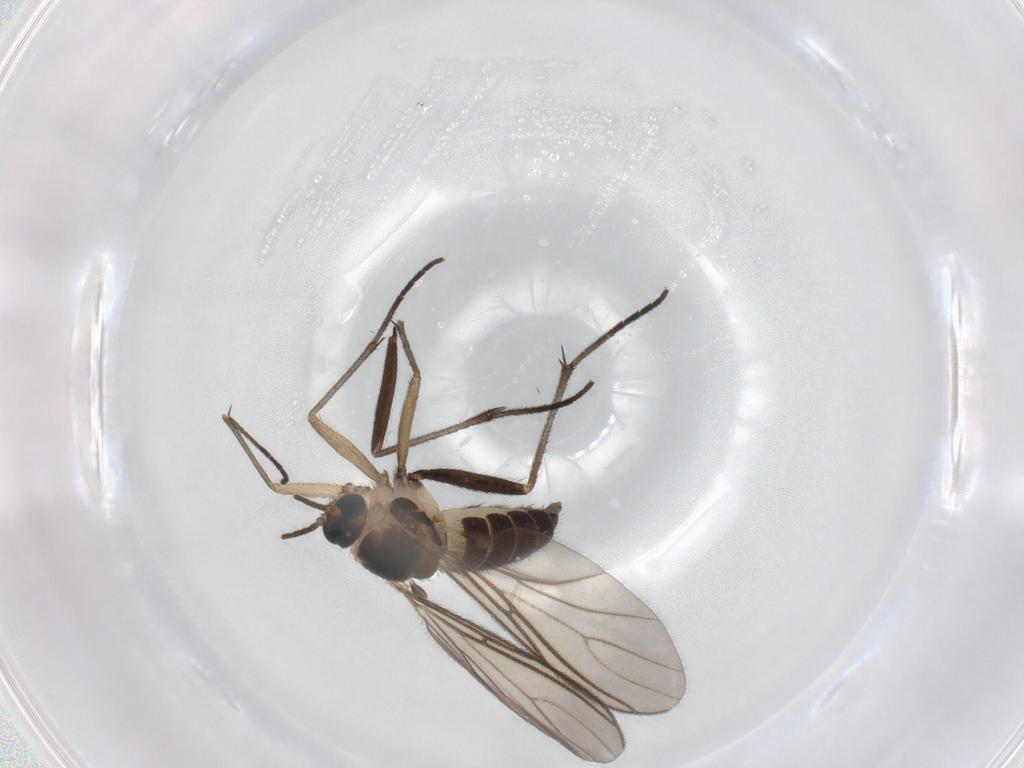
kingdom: Animalia
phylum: Arthropoda
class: Insecta
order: Diptera
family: Sciaridae
